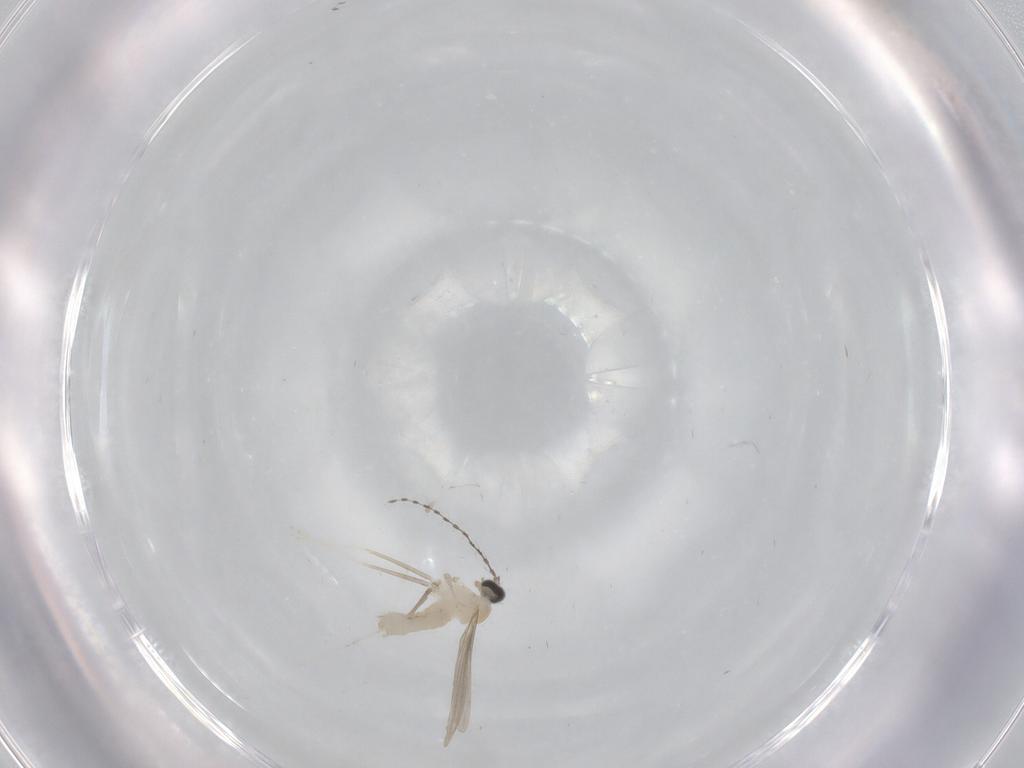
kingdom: Animalia
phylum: Arthropoda
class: Insecta
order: Diptera
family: Cecidomyiidae
